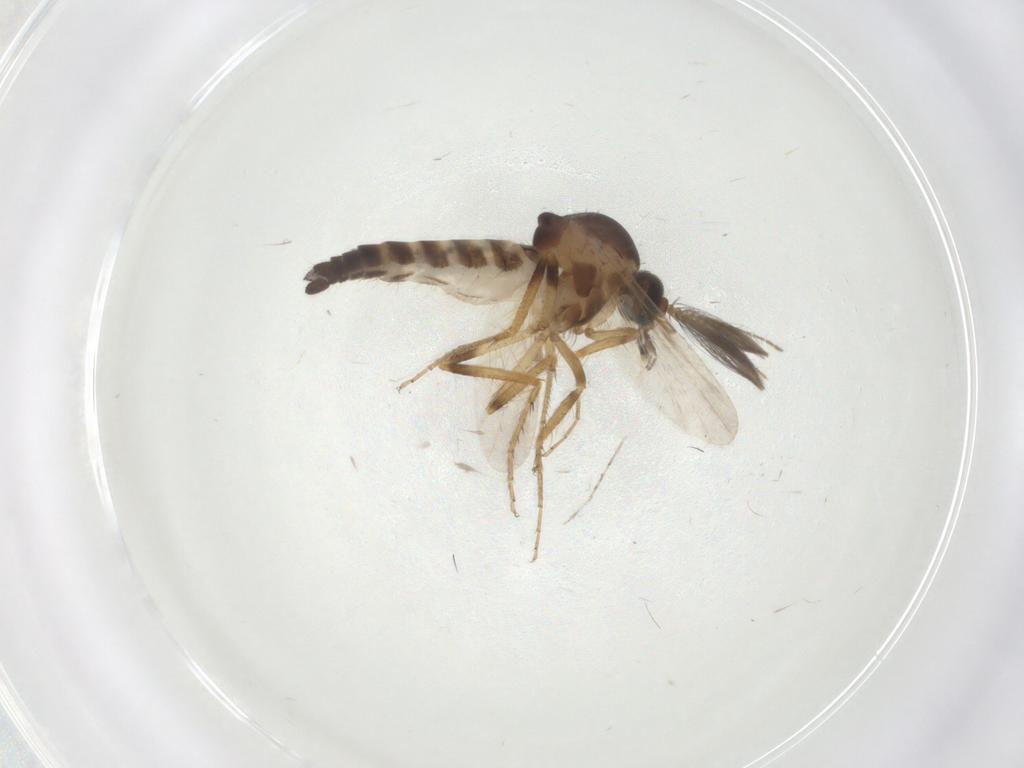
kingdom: Animalia
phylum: Arthropoda
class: Insecta
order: Diptera
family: Ceratopogonidae
